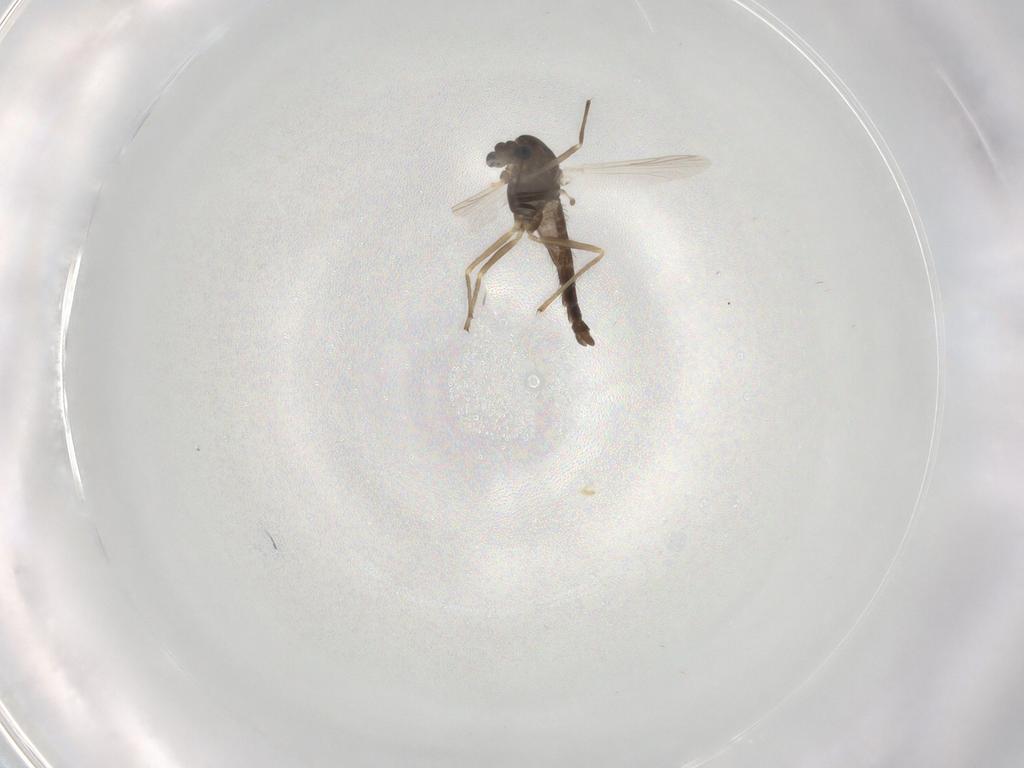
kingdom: Animalia
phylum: Arthropoda
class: Insecta
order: Diptera
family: Chironomidae
